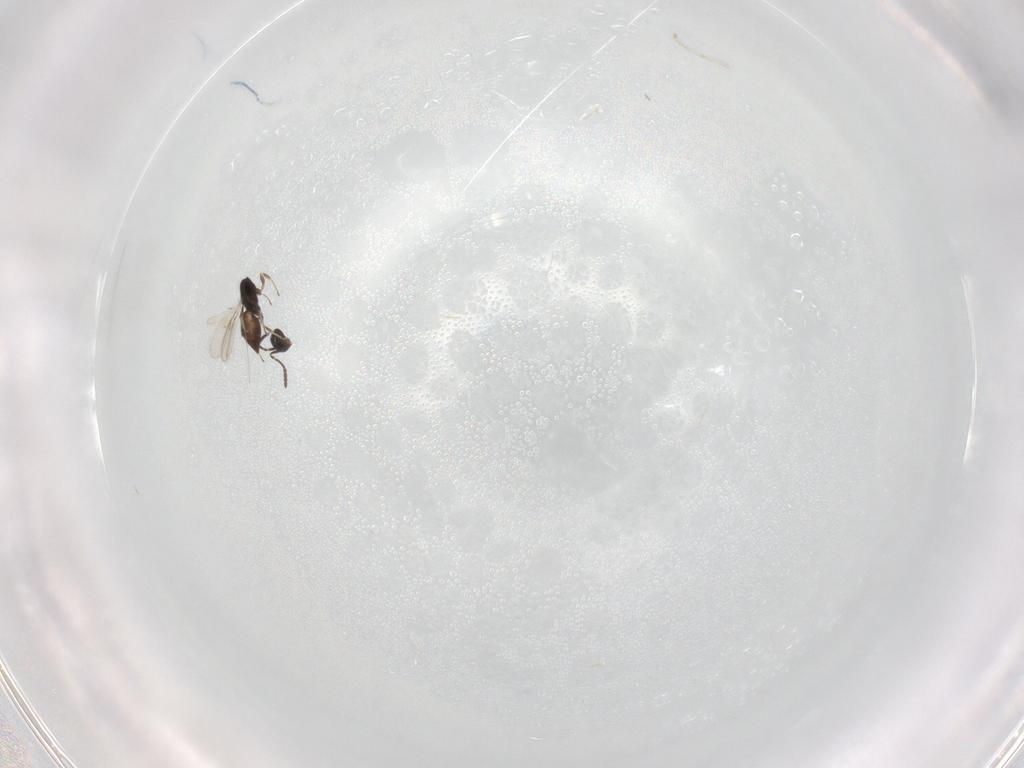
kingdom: Animalia
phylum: Arthropoda
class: Insecta
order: Hymenoptera
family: Scelionidae
